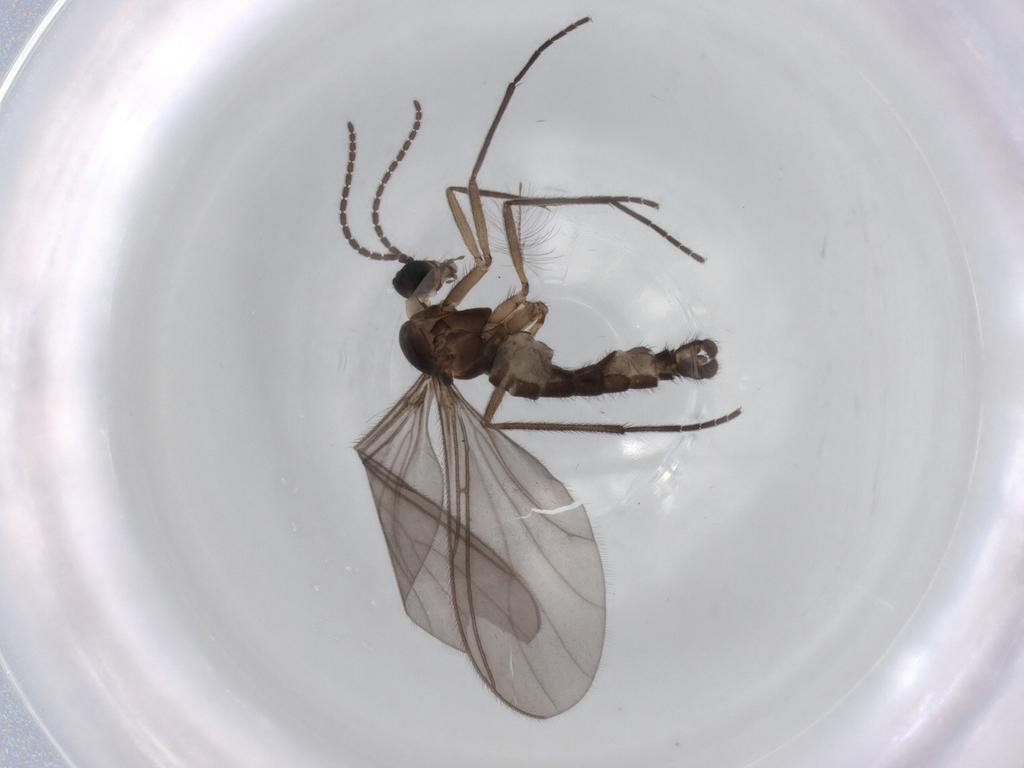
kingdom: Animalia
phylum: Arthropoda
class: Insecta
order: Diptera
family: Sciaridae
